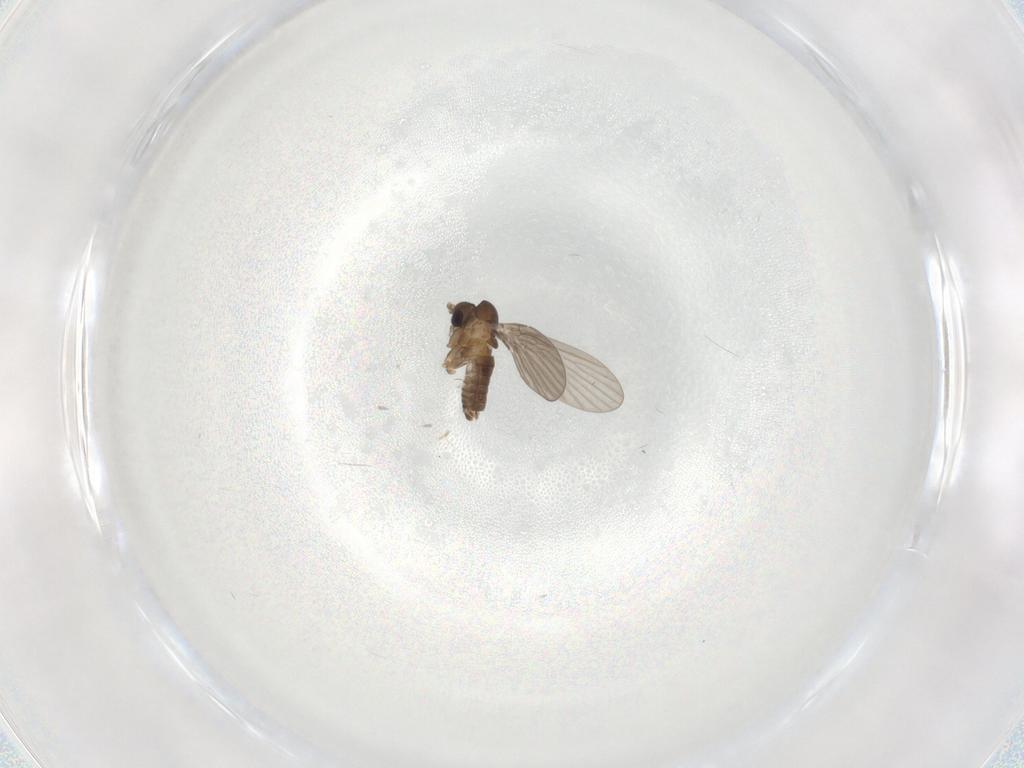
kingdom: Animalia
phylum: Arthropoda
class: Insecta
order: Diptera
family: Phoridae
